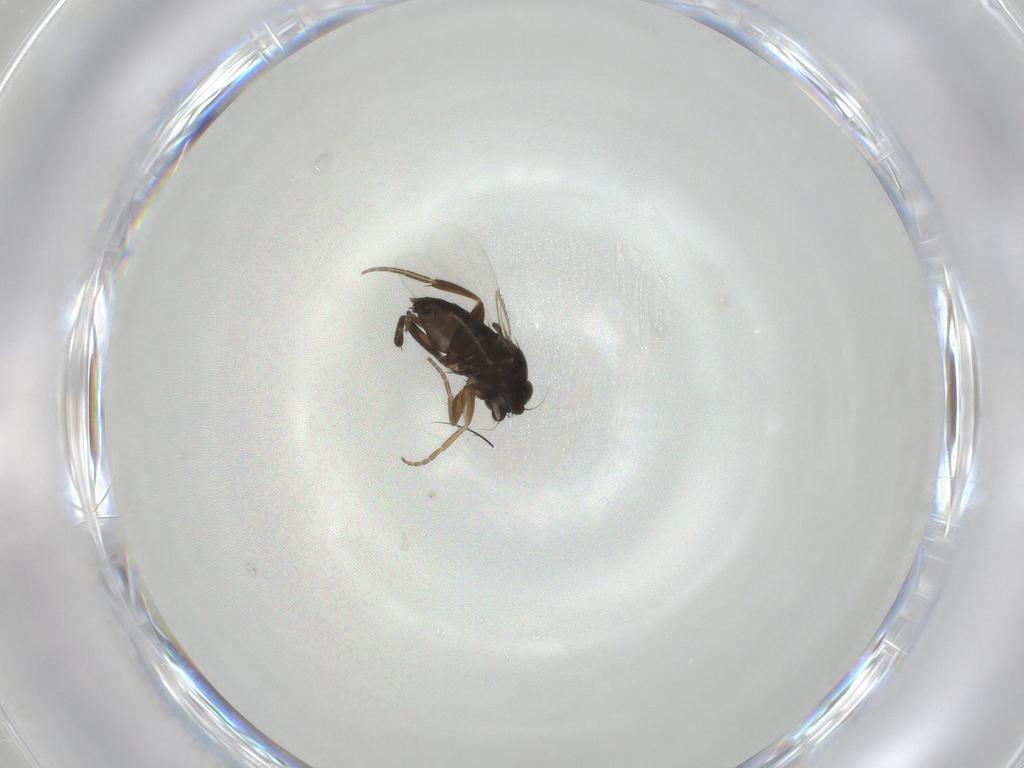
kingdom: Animalia
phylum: Arthropoda
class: Insecta
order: Diptera
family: Phoridae
